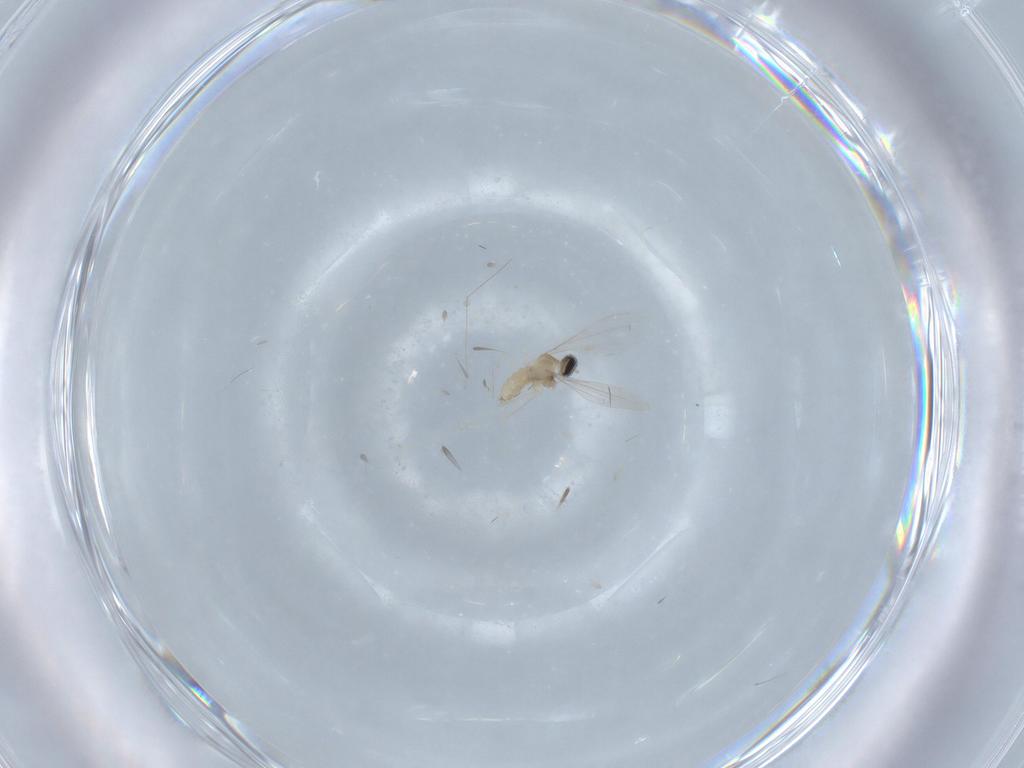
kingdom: Animalia
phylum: Arthropoda
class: Insecta
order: Diptera
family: Cecidomyiidae
